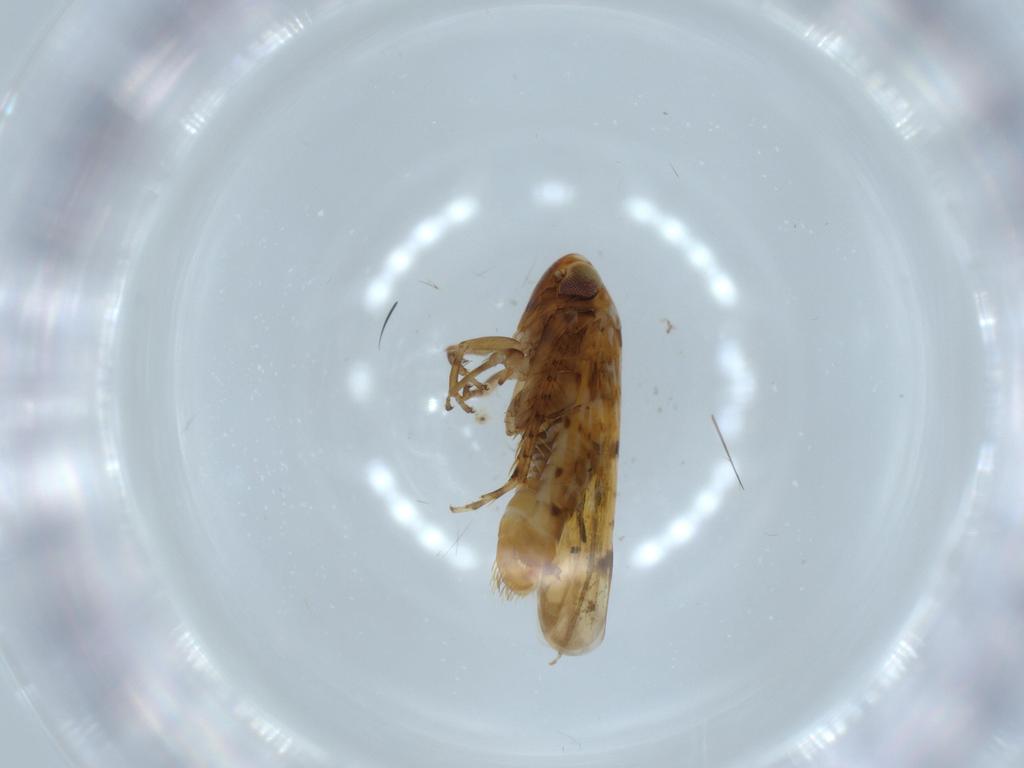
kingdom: Animalia
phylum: Arthropoda
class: Insecta
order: Hemiptera
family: Cicadellidae
